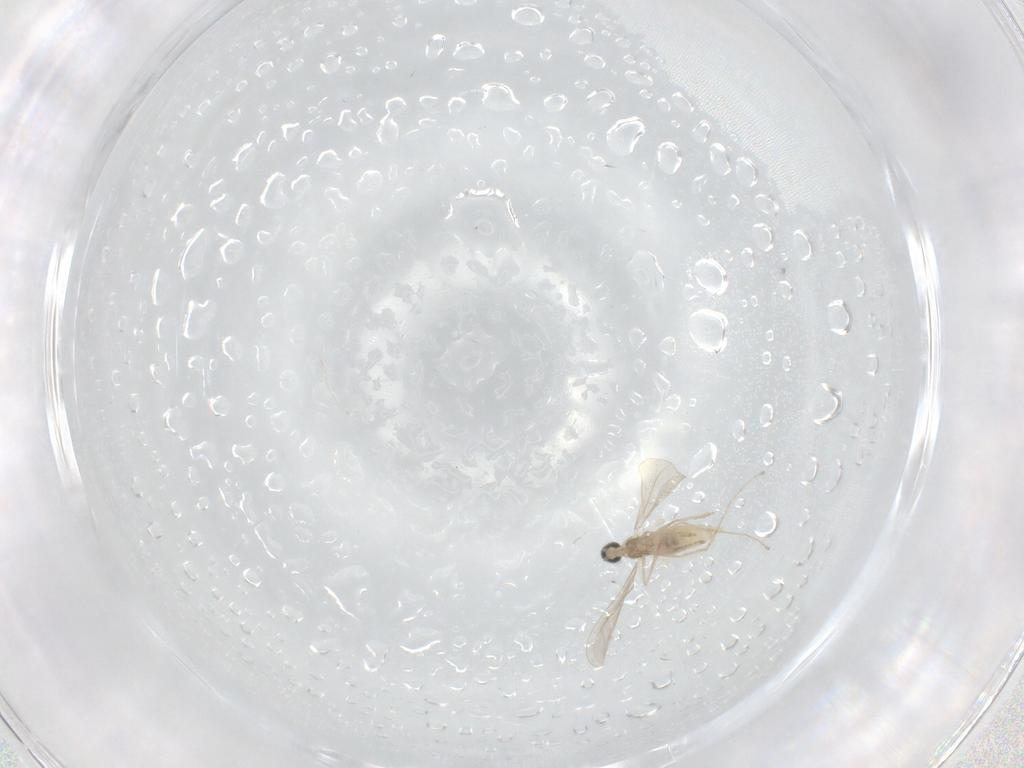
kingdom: Animalia
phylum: Arthropoda
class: Insecta
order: Diptera
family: Cecidomyiidae
